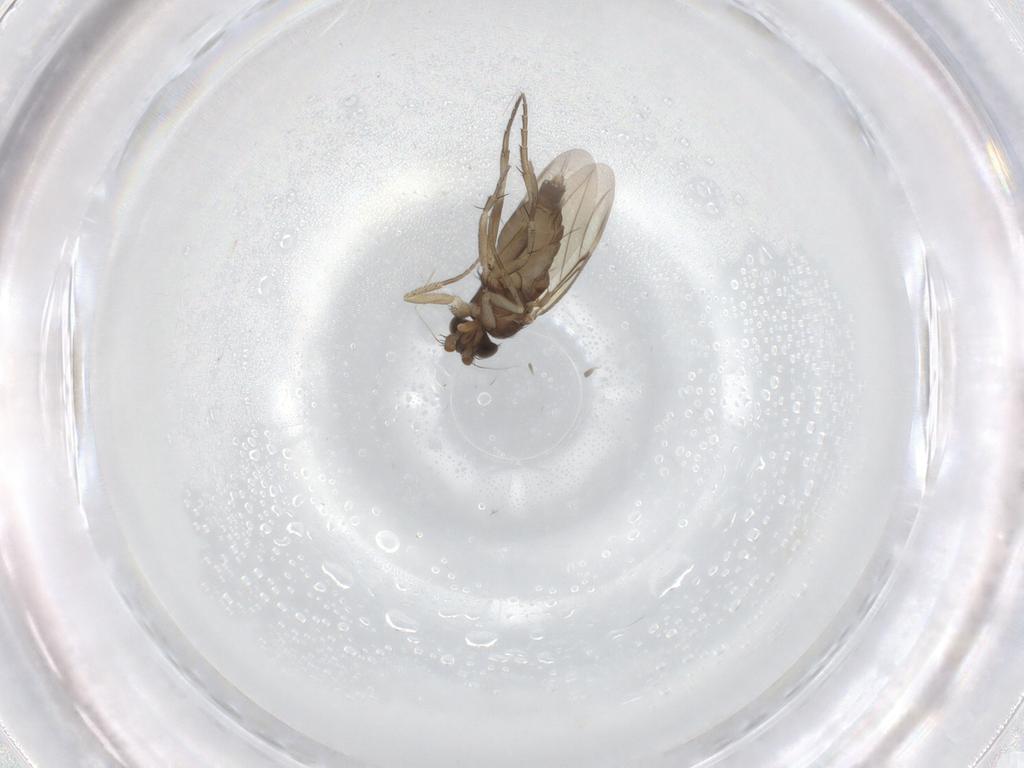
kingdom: Animalia
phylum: Arthropoda
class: Insecta
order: Diptera
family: Phoridae
